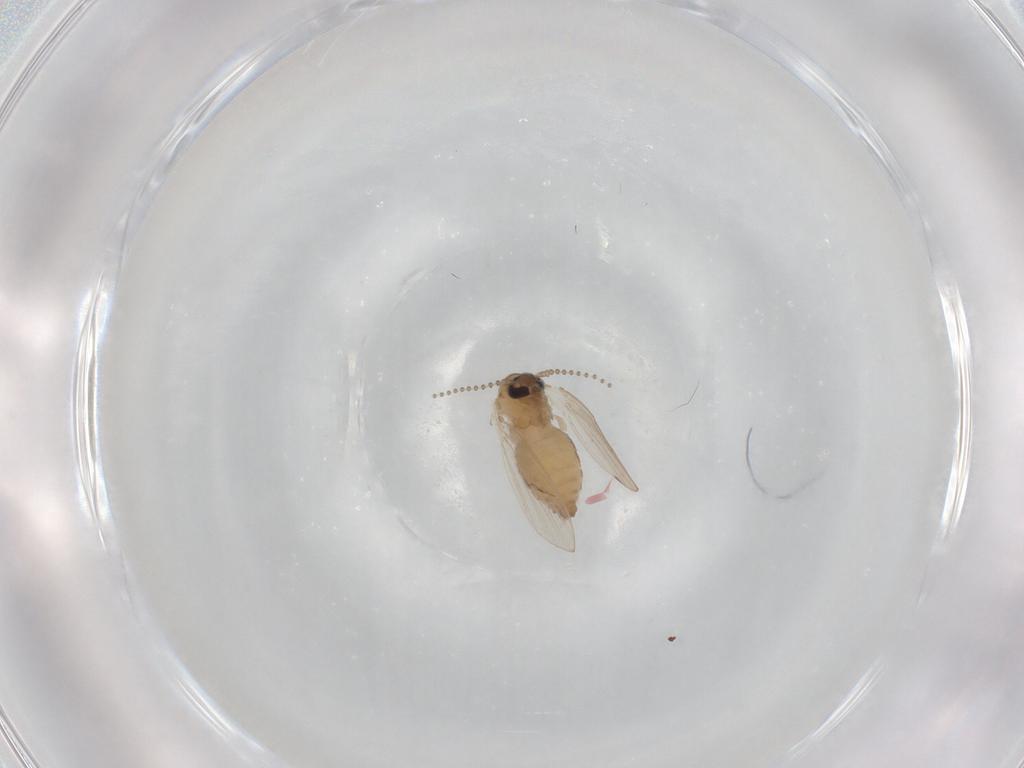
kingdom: Animalia
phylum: Arthropoda
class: Insecta
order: Diptera
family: Psychodidae
